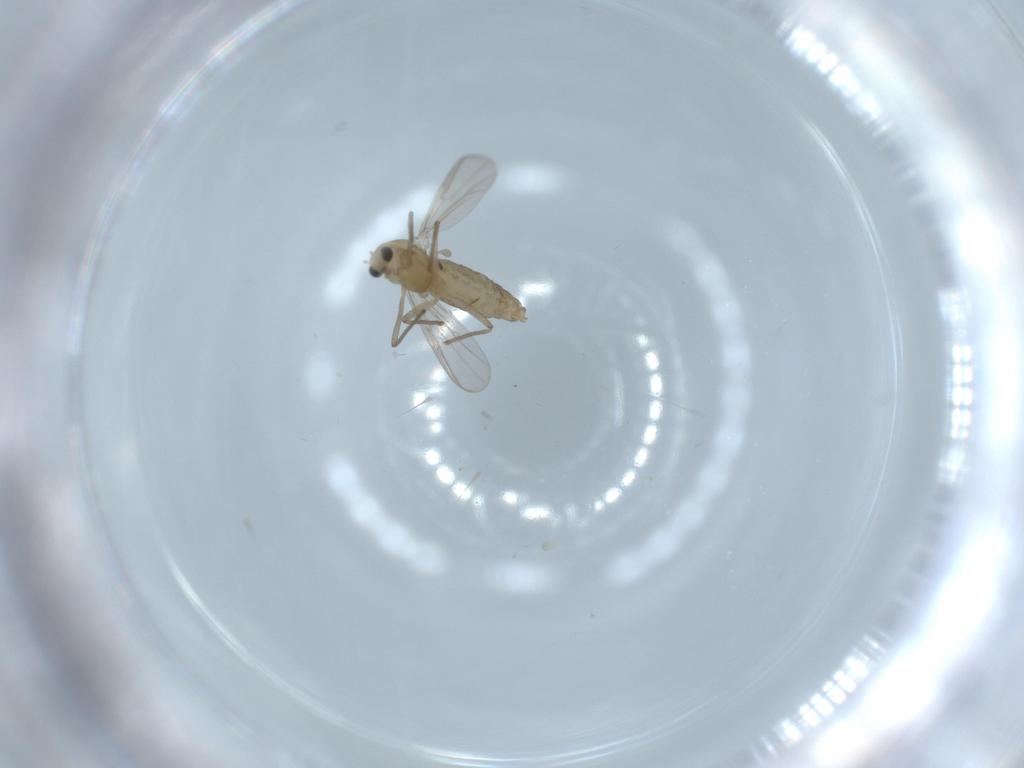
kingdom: Animalia
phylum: Arthropoda
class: Insecta
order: Diptera
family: Chironomidae
